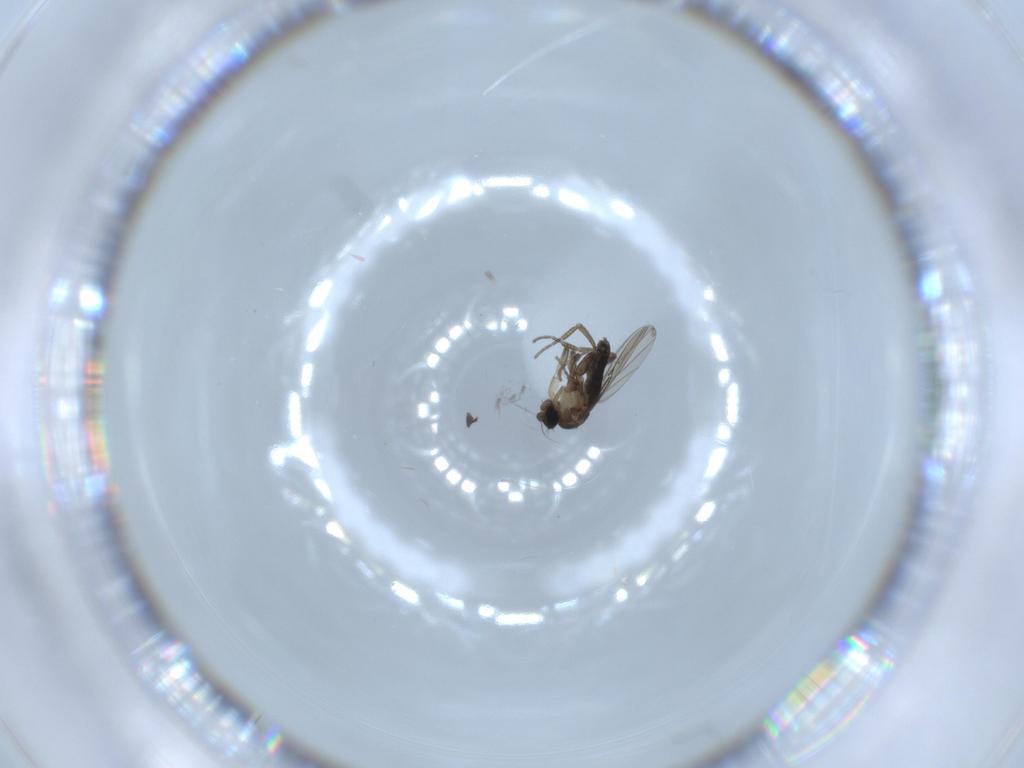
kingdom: Animalia
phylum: Arthropoda
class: Insecta
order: Diptera
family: Phoridae
